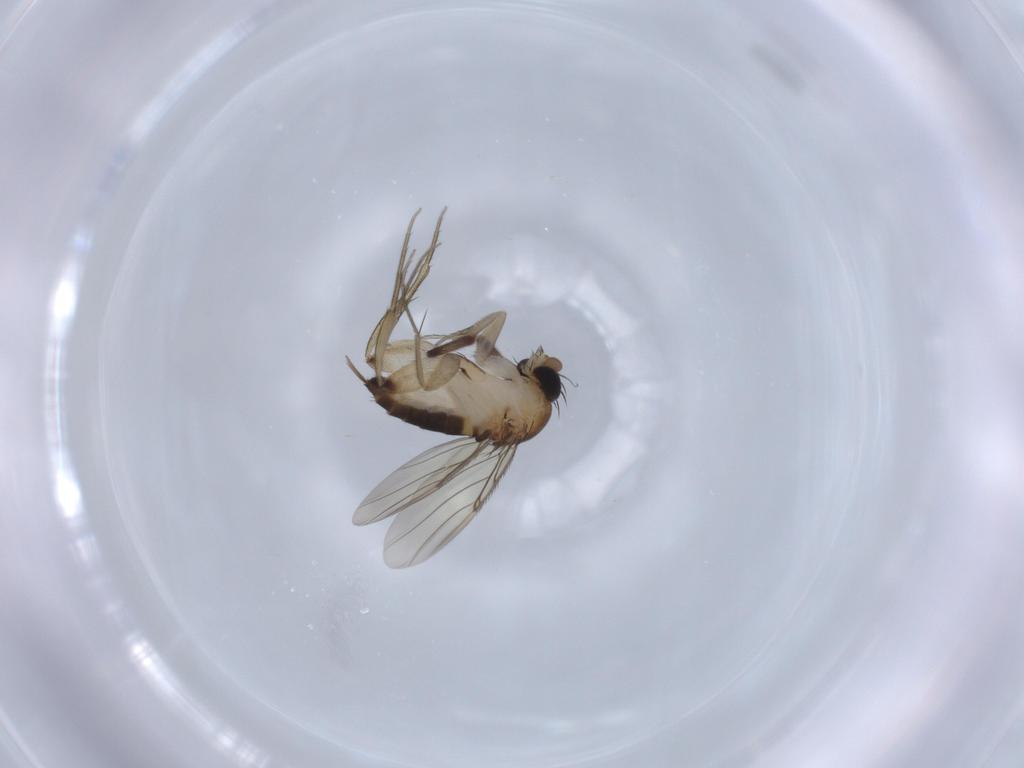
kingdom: Animalia
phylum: Arthropoda
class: Insecta
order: Diptera
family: Phoridae
